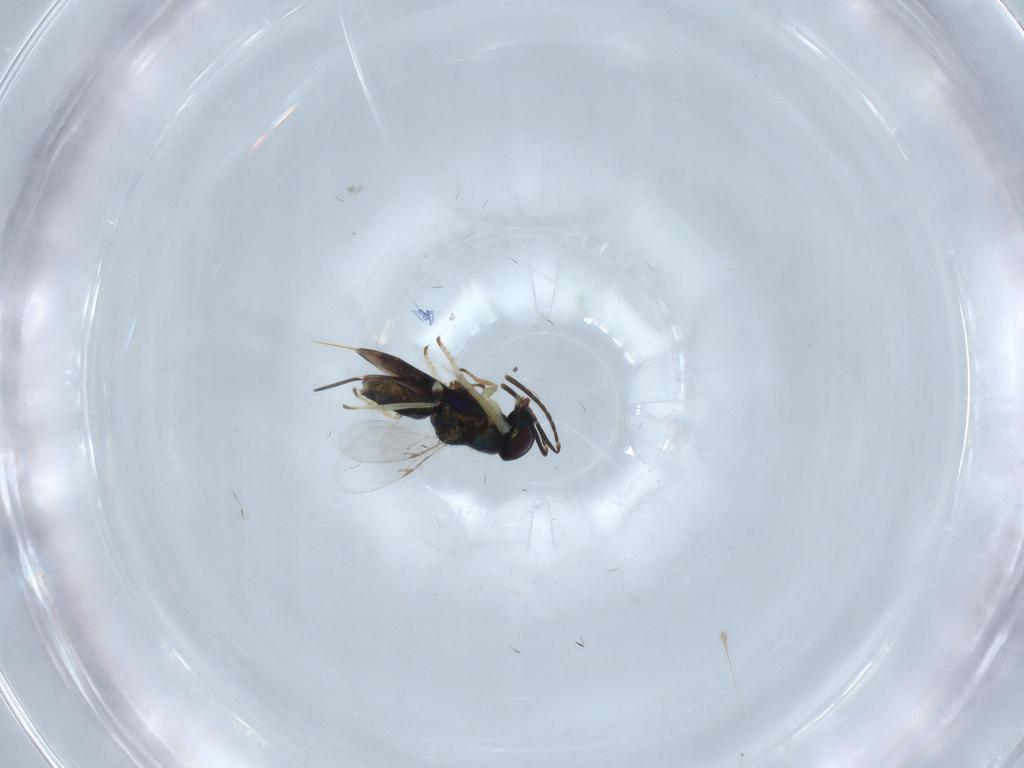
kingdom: Animalia
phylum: Arthropoda
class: Insecta
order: Hymenoptera
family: Encyrtidae
